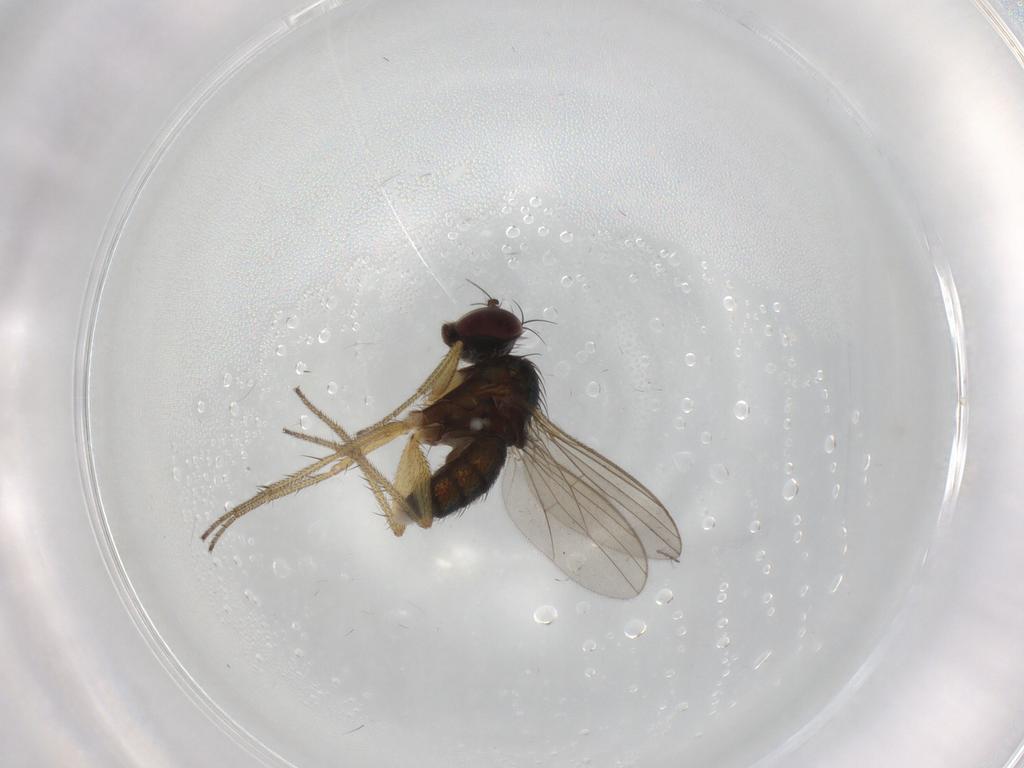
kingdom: Animalia
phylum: Arthropoda
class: Insecta
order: Diptera
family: Chironomidae
